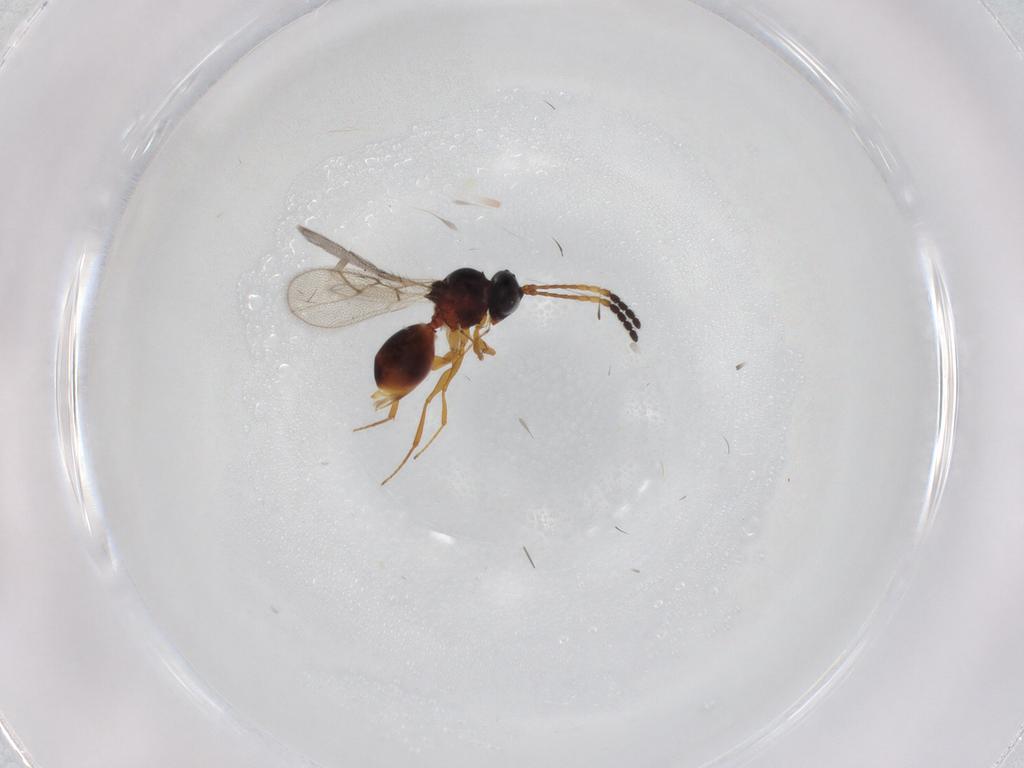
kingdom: Animalia
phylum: Arthropoda
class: Insecta
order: Hymenoptera
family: Figitidae
